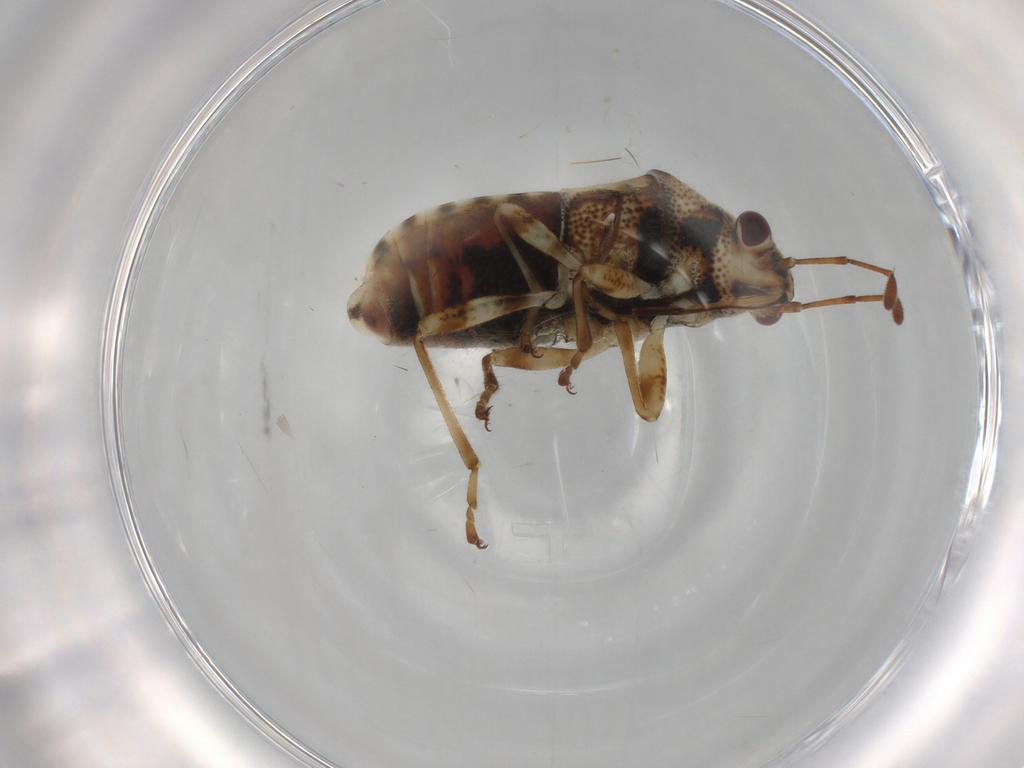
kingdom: Animalia
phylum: Arthropoda
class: Insecta
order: Hemiptera
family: Lygaeidae
